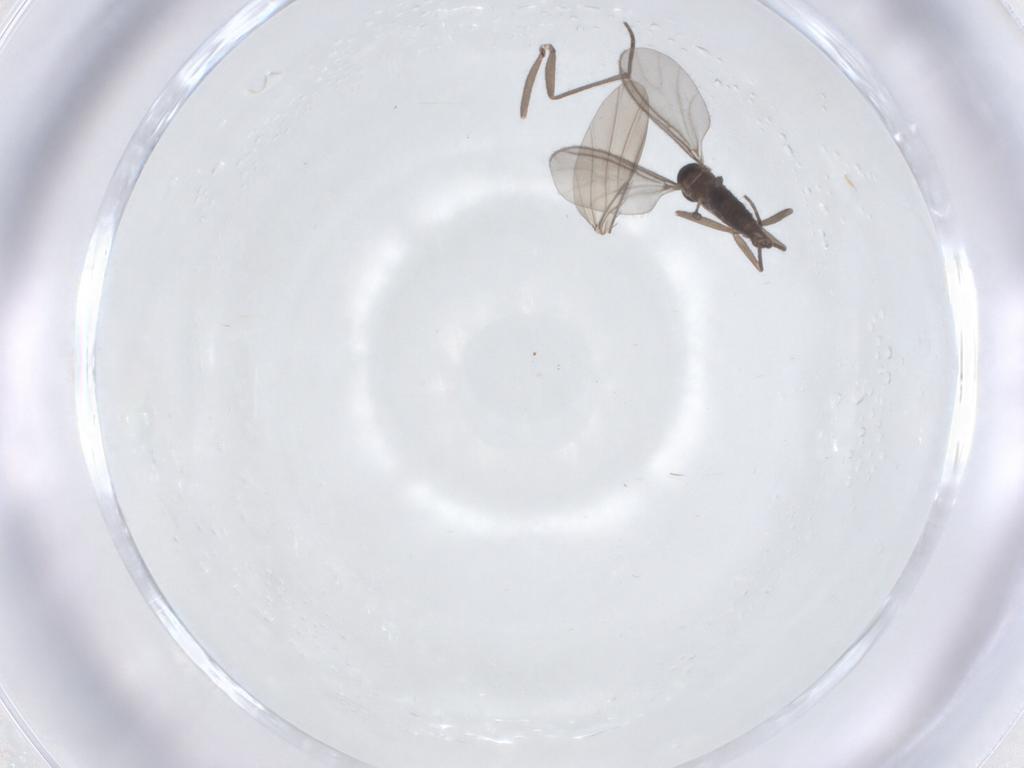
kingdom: Animalia
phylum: Arthropoda
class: Insecta
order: Diptera
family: Sciaridae
